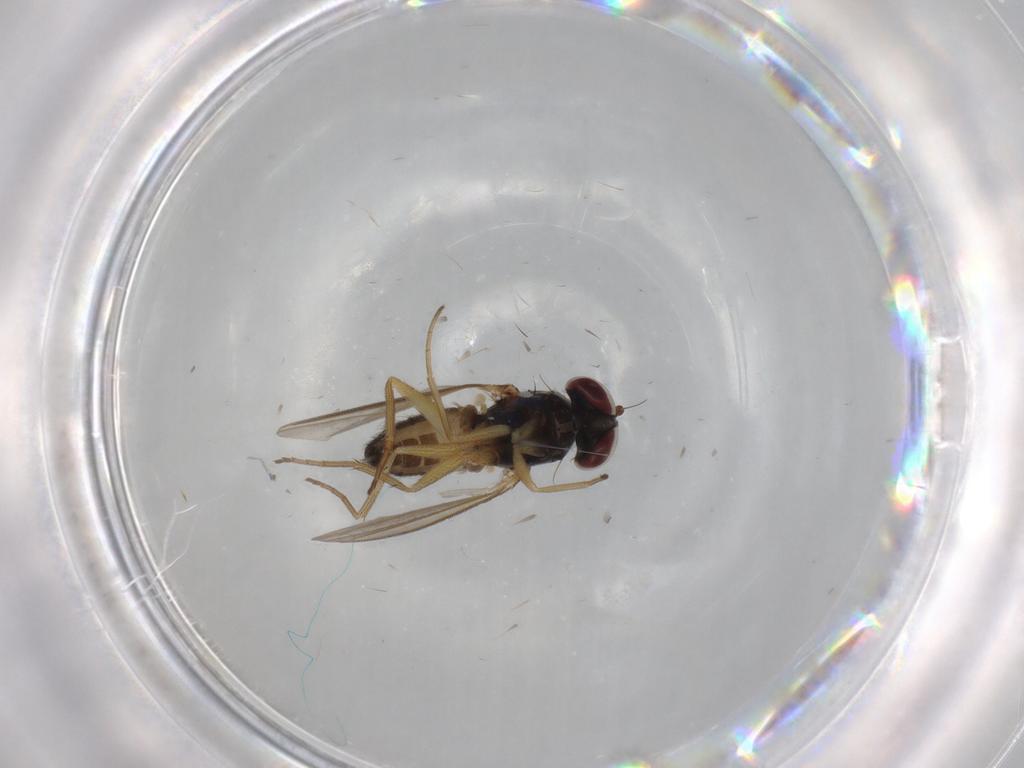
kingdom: Animalia
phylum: Arthropoda
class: Insecta
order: Diptera
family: Dolichopodidae
